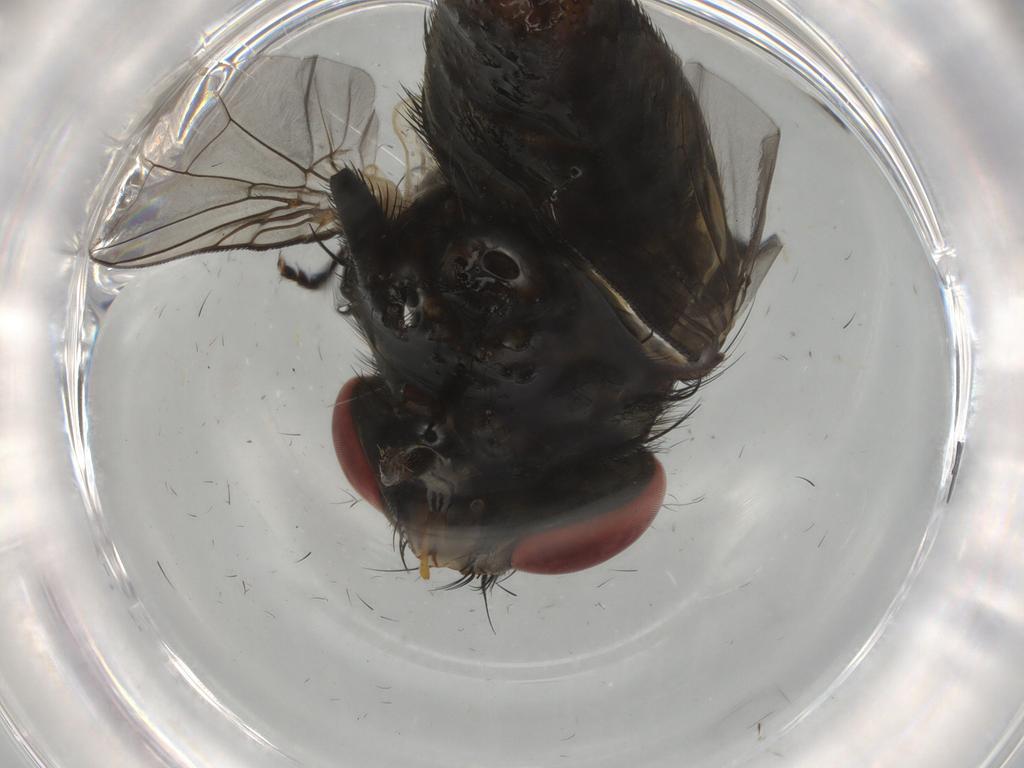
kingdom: Animalia
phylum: Arthropoda
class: Insecta
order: Diptera
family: Sarcophagidae
